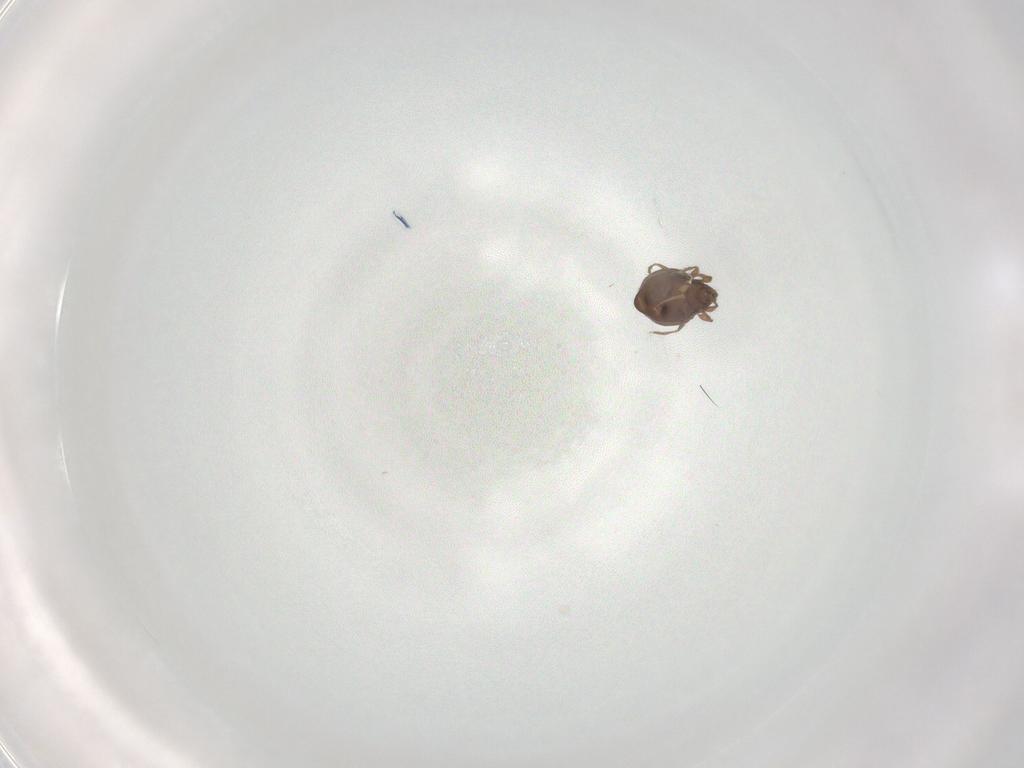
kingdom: Animalia
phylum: Arthropoda
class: Arachnida
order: Sarcoptiformes
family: Oribatulidae
